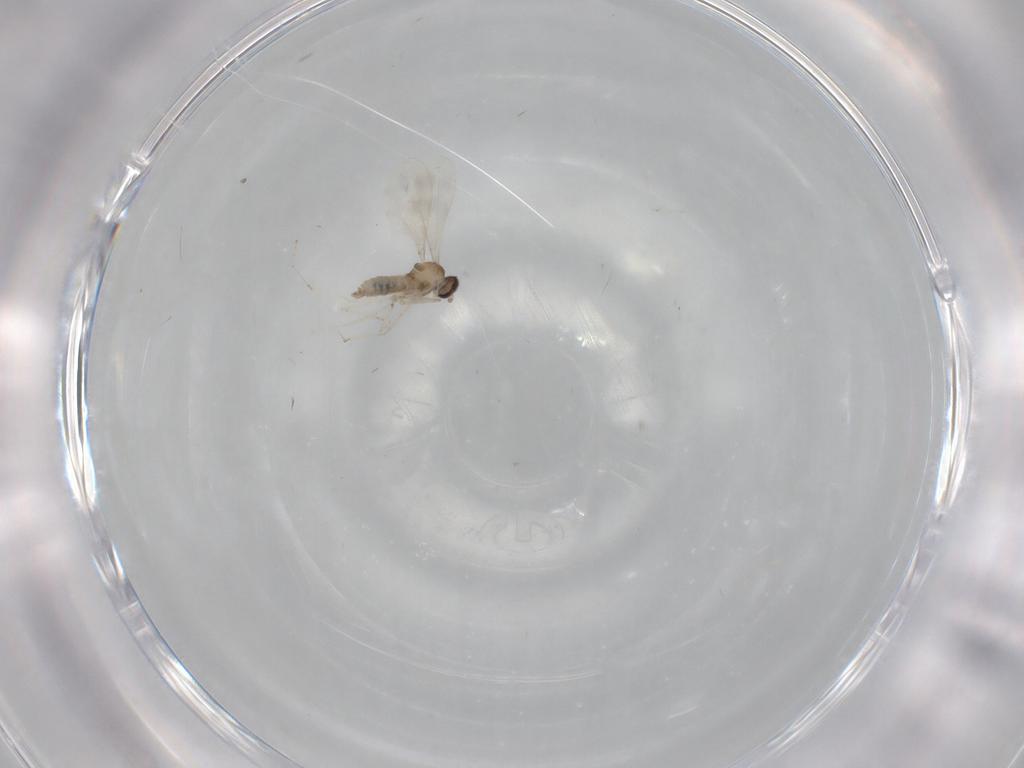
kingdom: Animalia
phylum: Arthropoda
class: Insecta
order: Diptera
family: Cecidomyiidae
